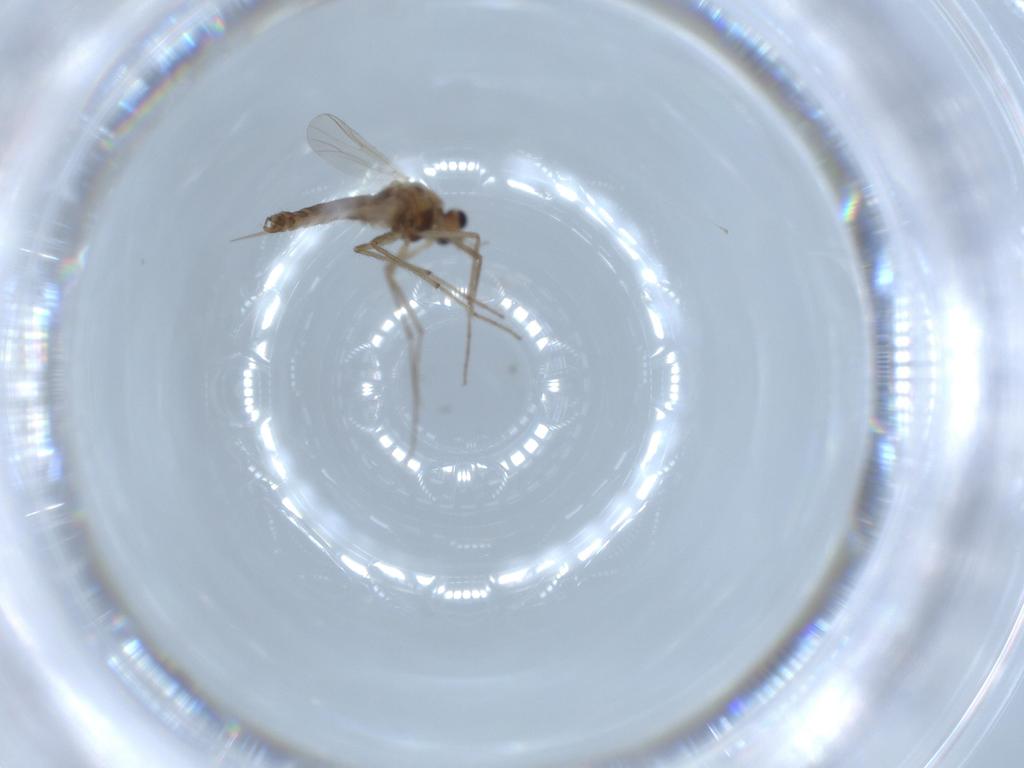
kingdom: Animalia
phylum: Arthropoda
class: Insecta
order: Diptera
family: Chironomidae
